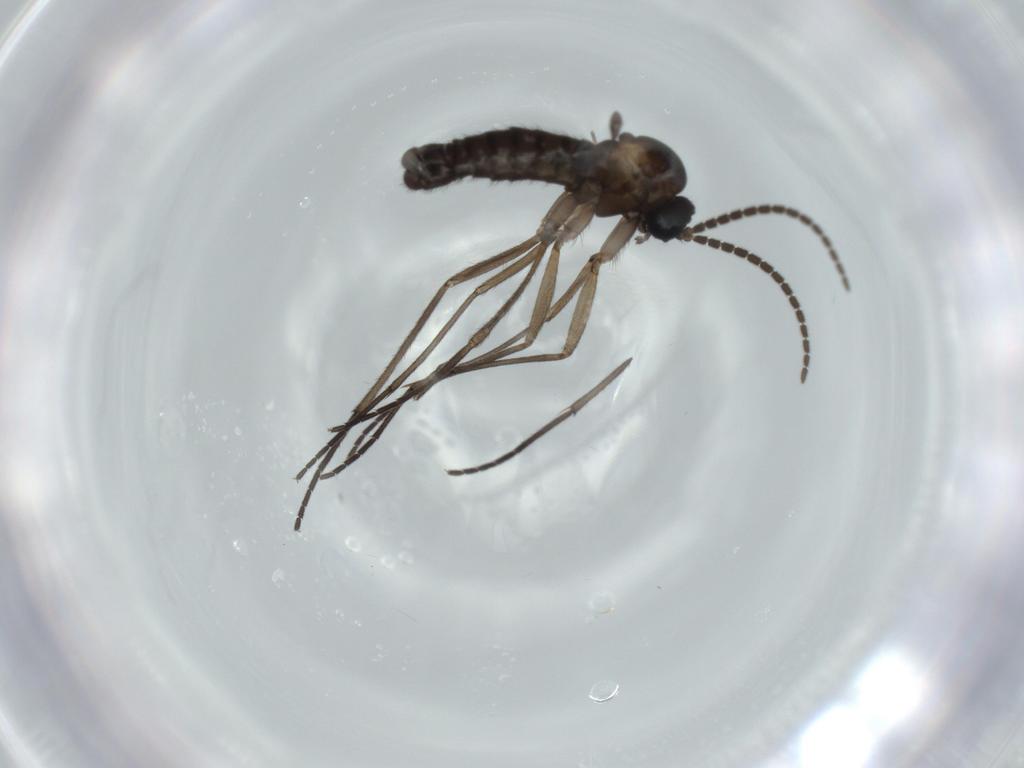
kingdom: Animalia
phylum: Arthropoda
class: Insecta
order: Diptera
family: Sciaridae
